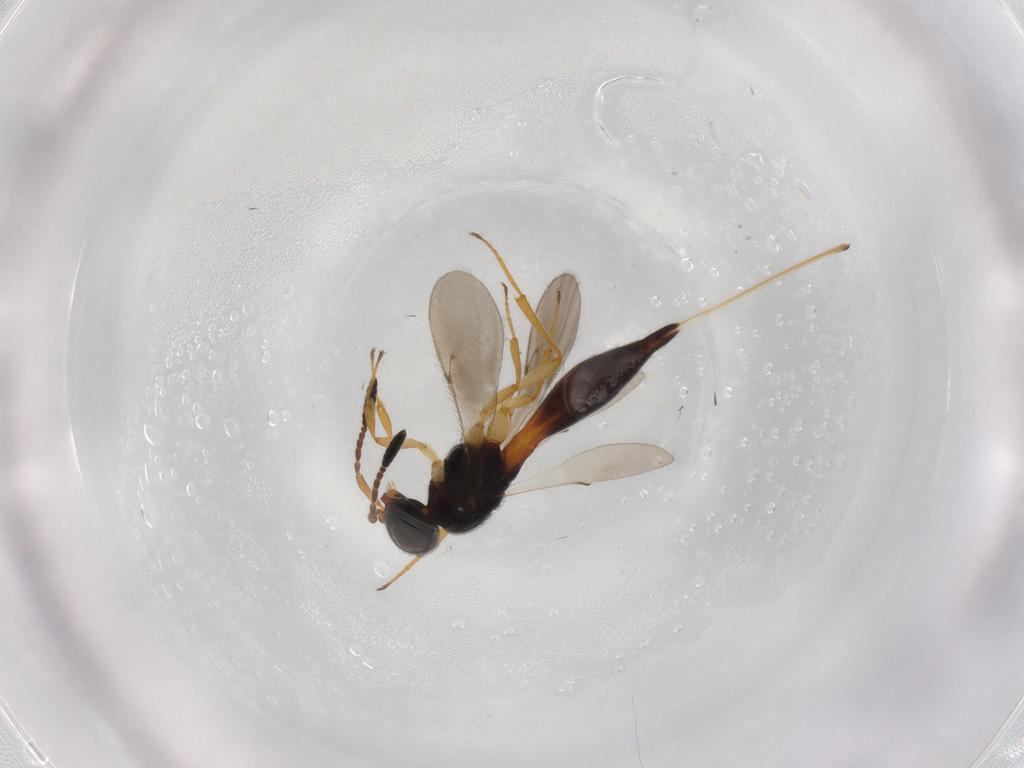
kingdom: Animalia
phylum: Arthropoda
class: Insecta
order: Hymenoptera
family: Scelionidae
